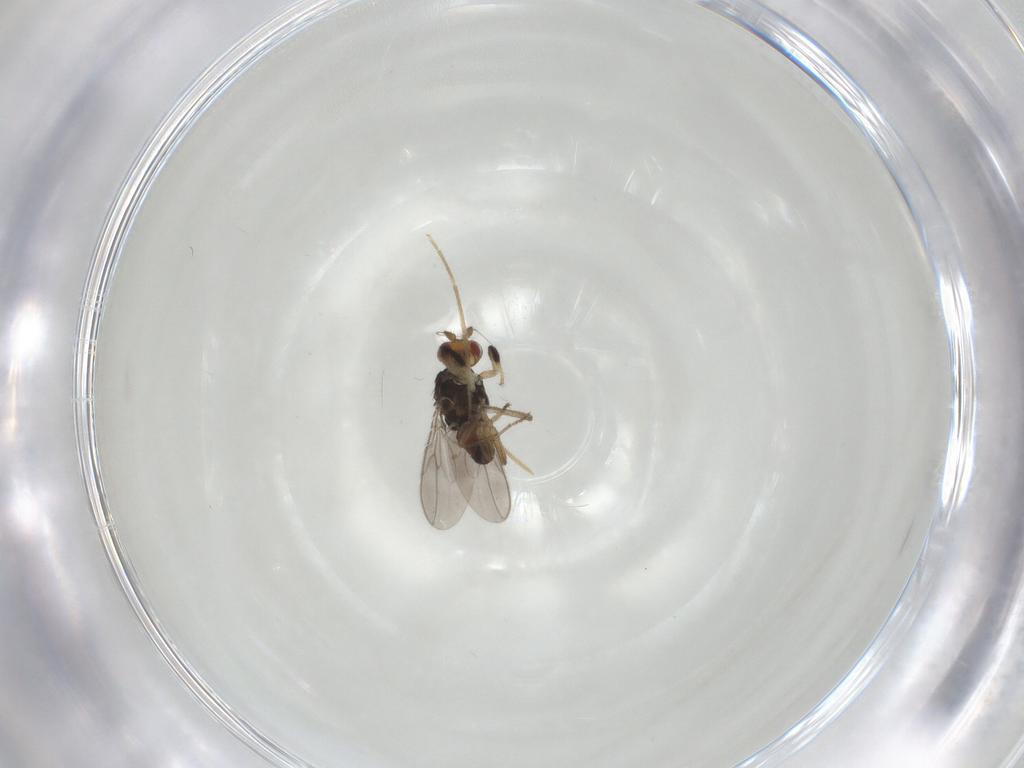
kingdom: Animalia
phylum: Arthropoda
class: Insecta
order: Diptera
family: Sphaeroceridae
